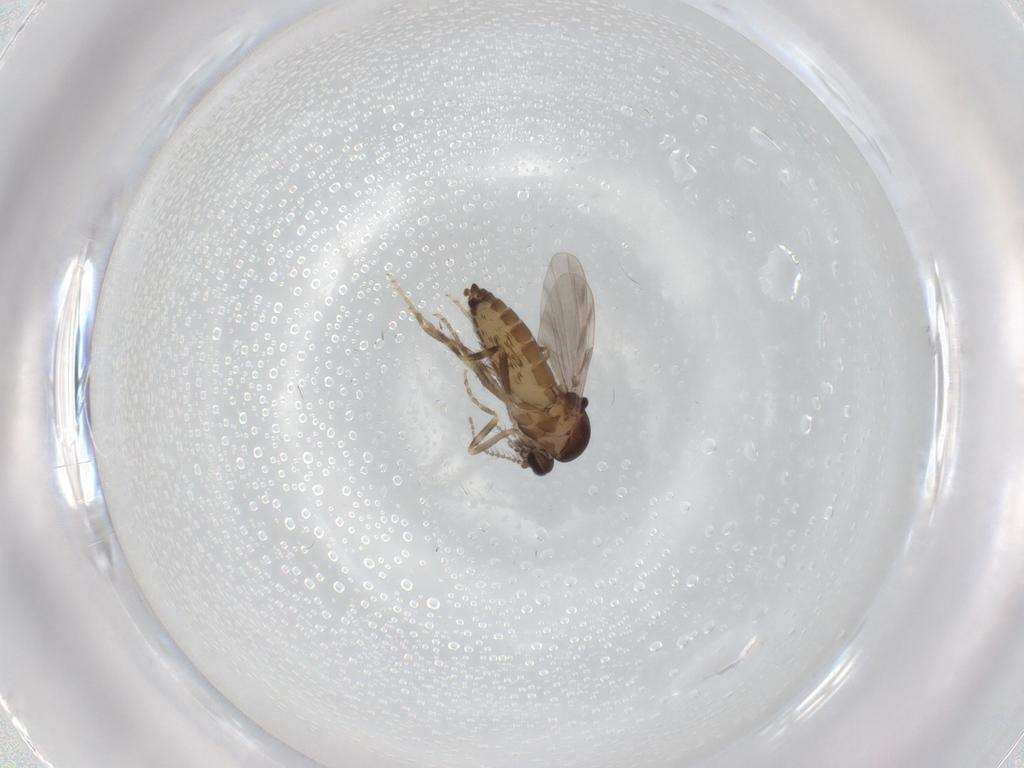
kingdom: Animalia
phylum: Arthropoda
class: Insecta
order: Diptera
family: Ceratopogonidae
